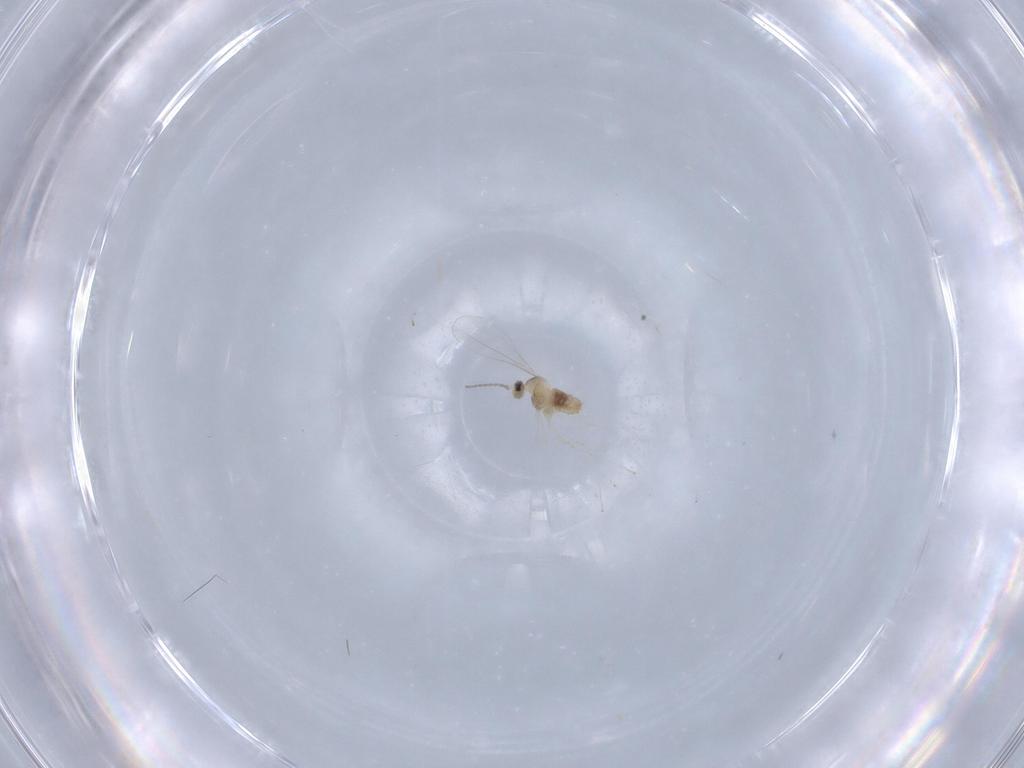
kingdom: Animalia
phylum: Arthropoda
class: Insecta
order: Diptera
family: Cecidomyiidae
